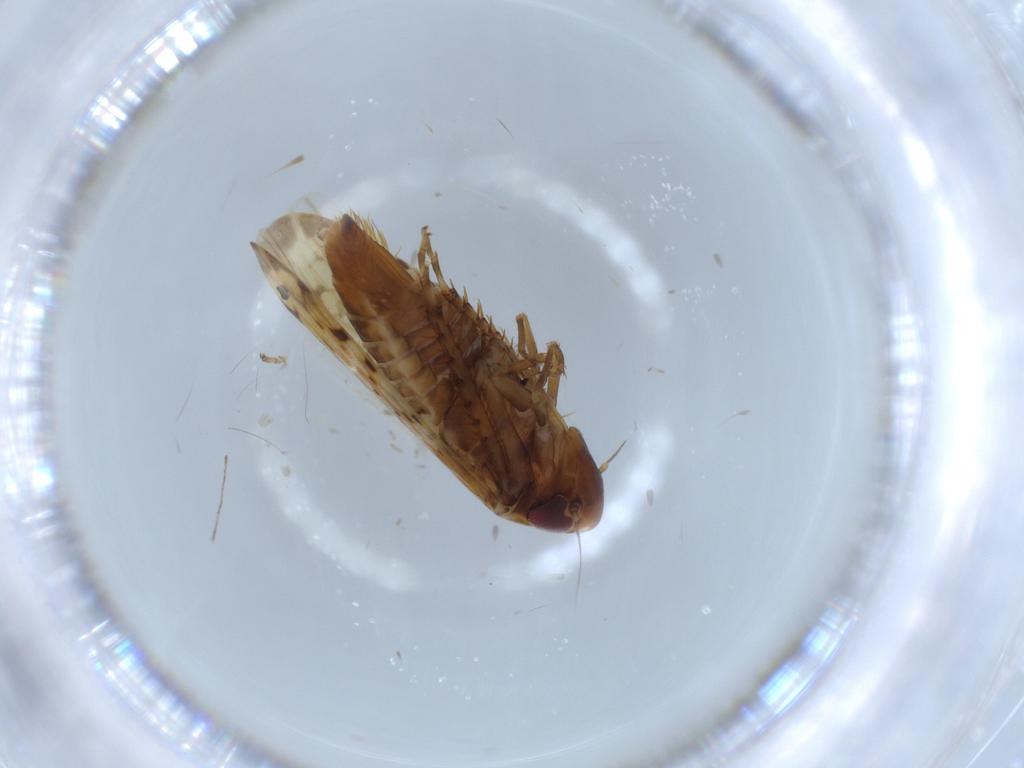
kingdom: Animalia
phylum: Arthropoda
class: Insecta
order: Hemiptera
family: Cicadellidae
